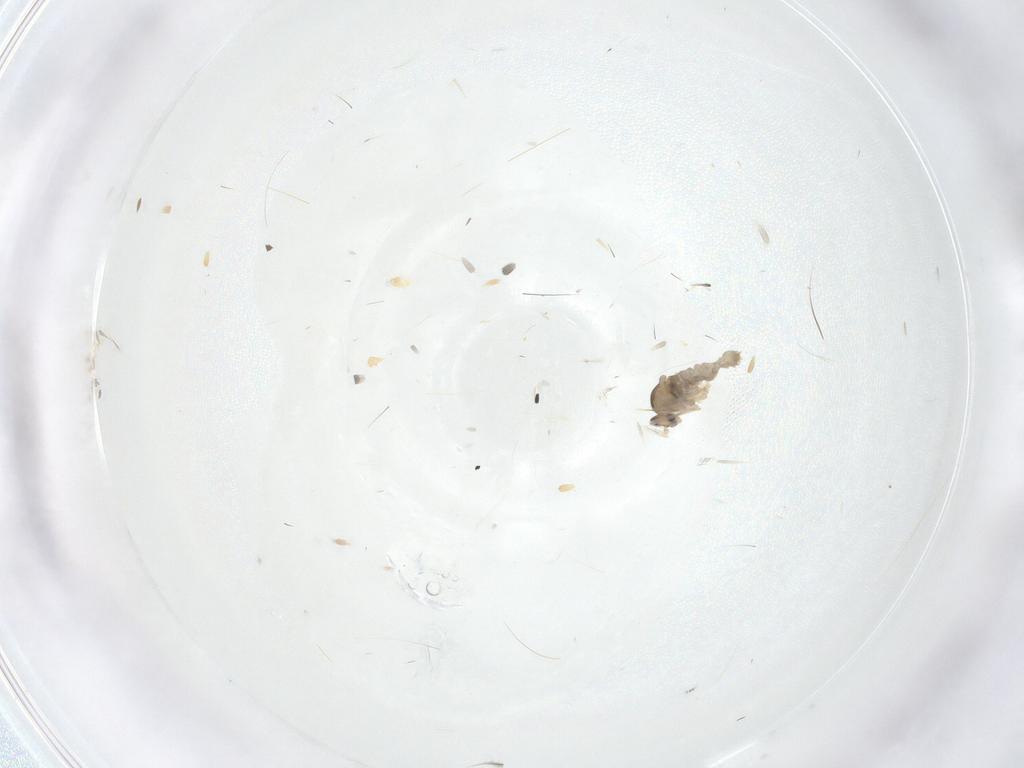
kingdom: Animalia
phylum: Arthropoda
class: Insecta
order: Diptera
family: Cecidomyiidae
